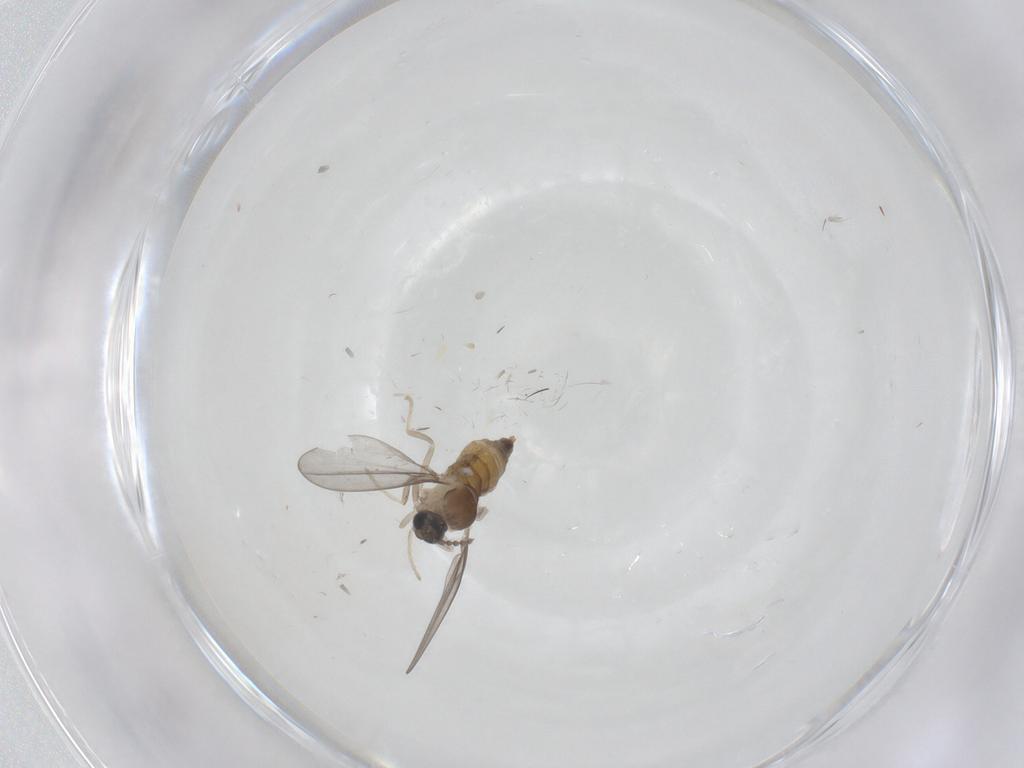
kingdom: Animalia
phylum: Arthropoda
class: Insecta
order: Diptera
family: Cecidomyiidae
